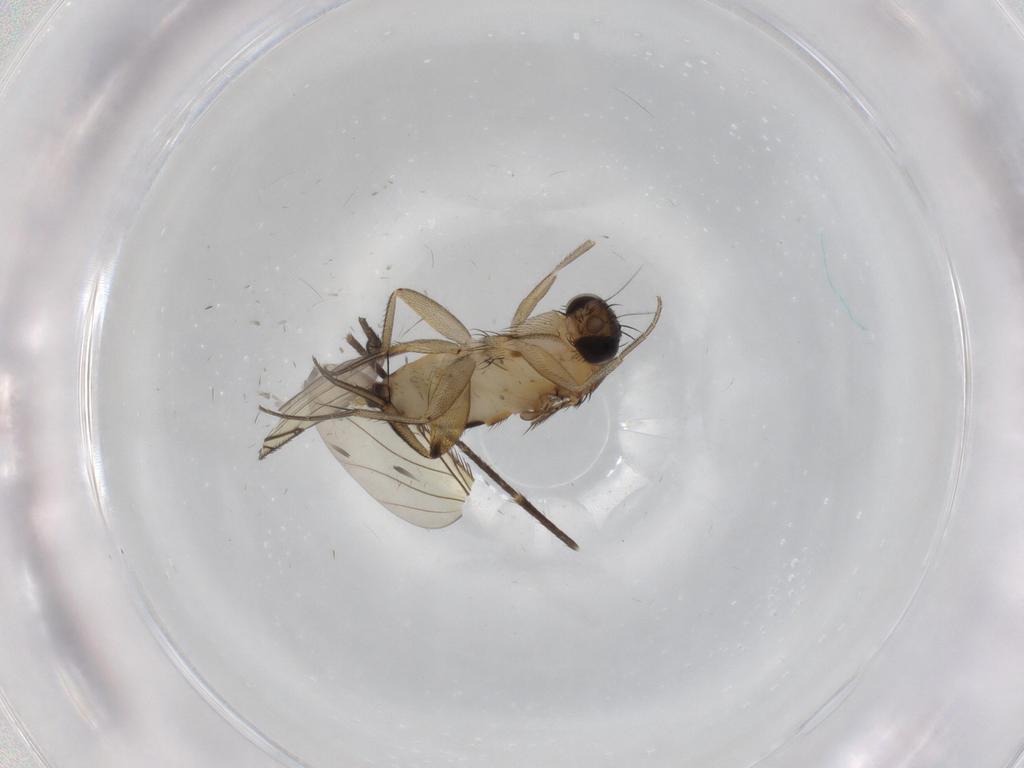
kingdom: Animalia
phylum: Arthropoda
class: Insecta
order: Diptera
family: Phoridae
